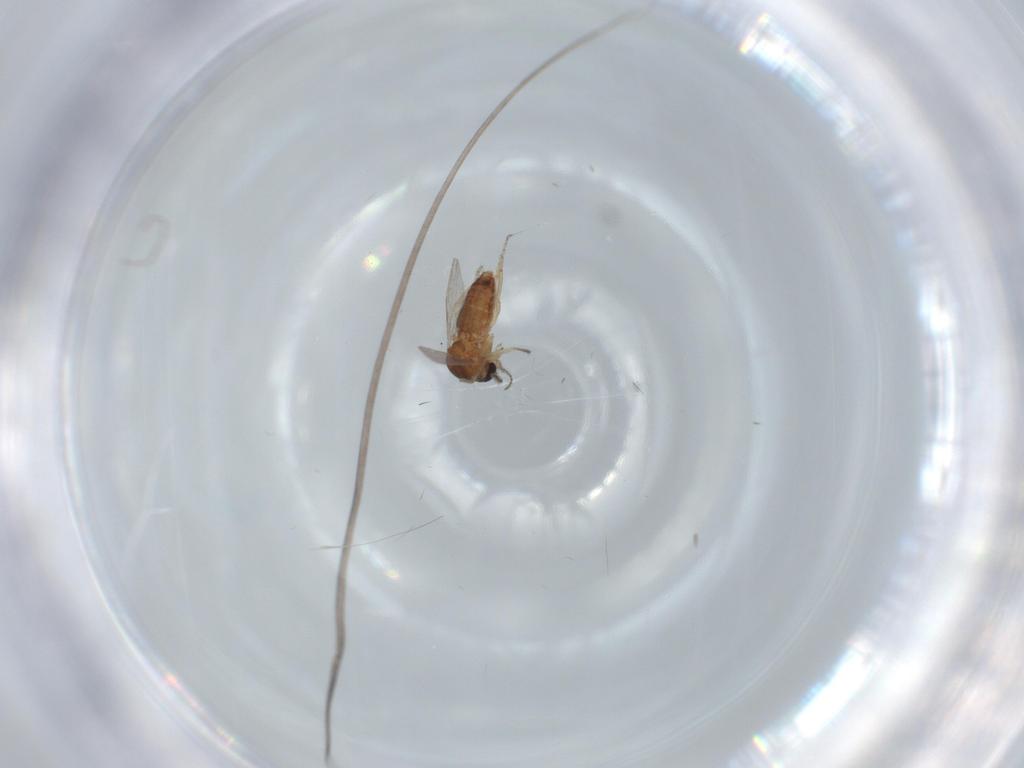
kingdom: Animalia
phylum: Arthropoda
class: Insecta
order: Diptera
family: Ceratopogonidae
